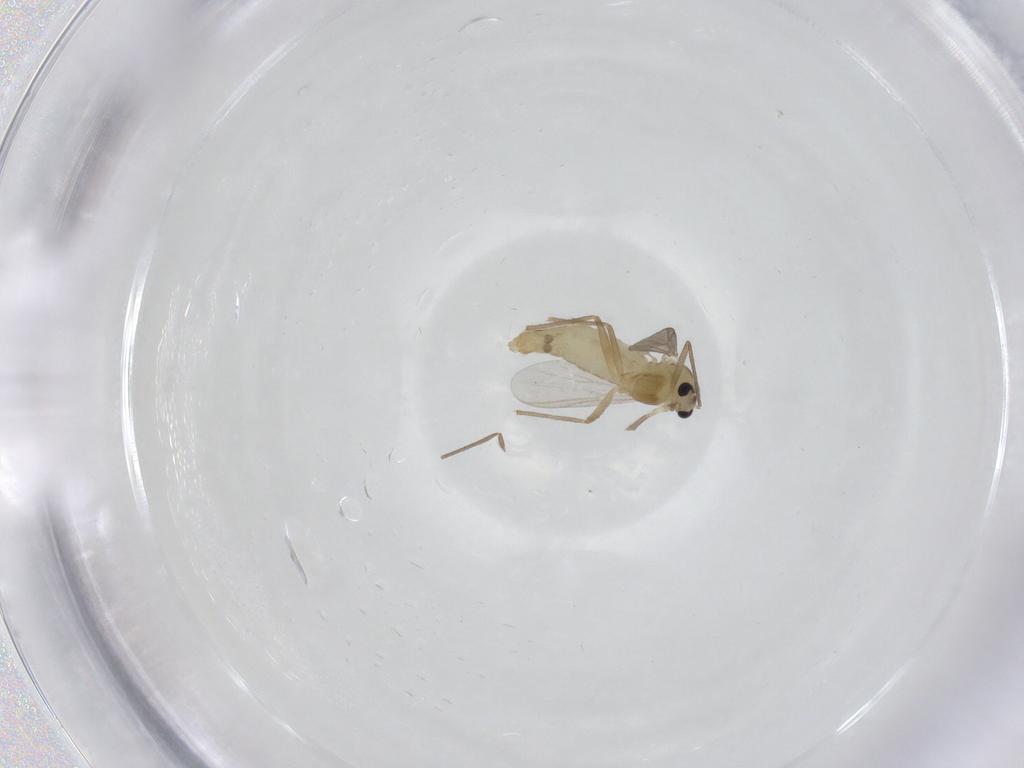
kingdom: Animalia
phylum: Arthropoda
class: Insecta
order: Diptera
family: Chironomidae
